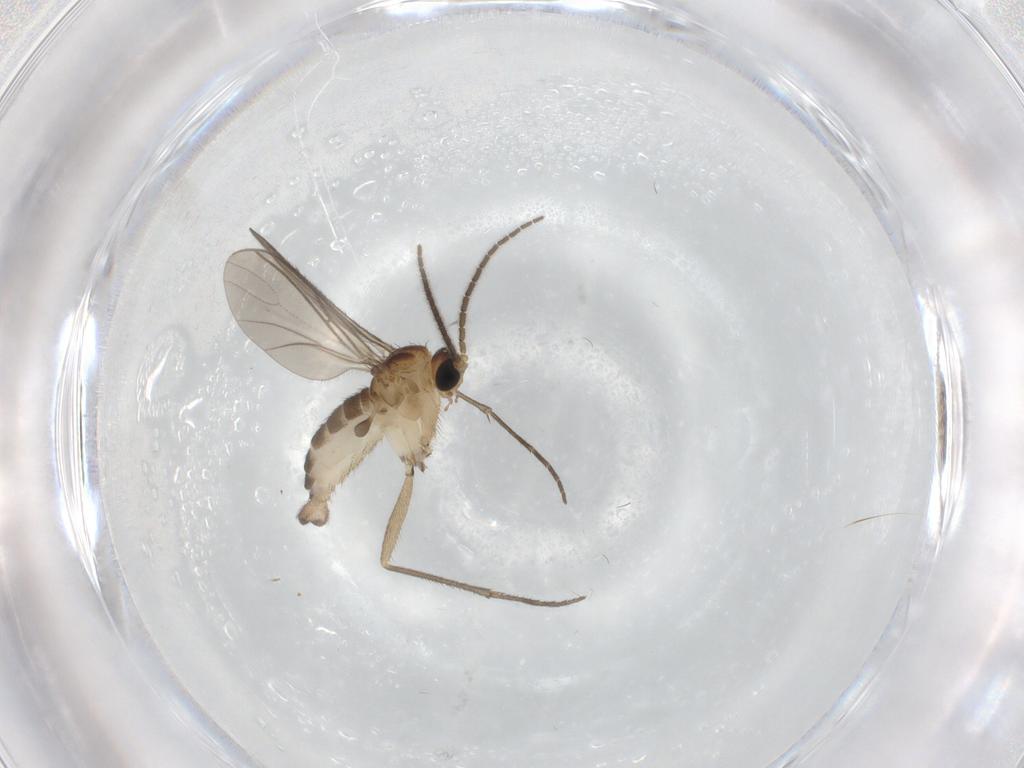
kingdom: Animalia
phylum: Arthropoda
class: Insecta
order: Diptera
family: Sciaridae
